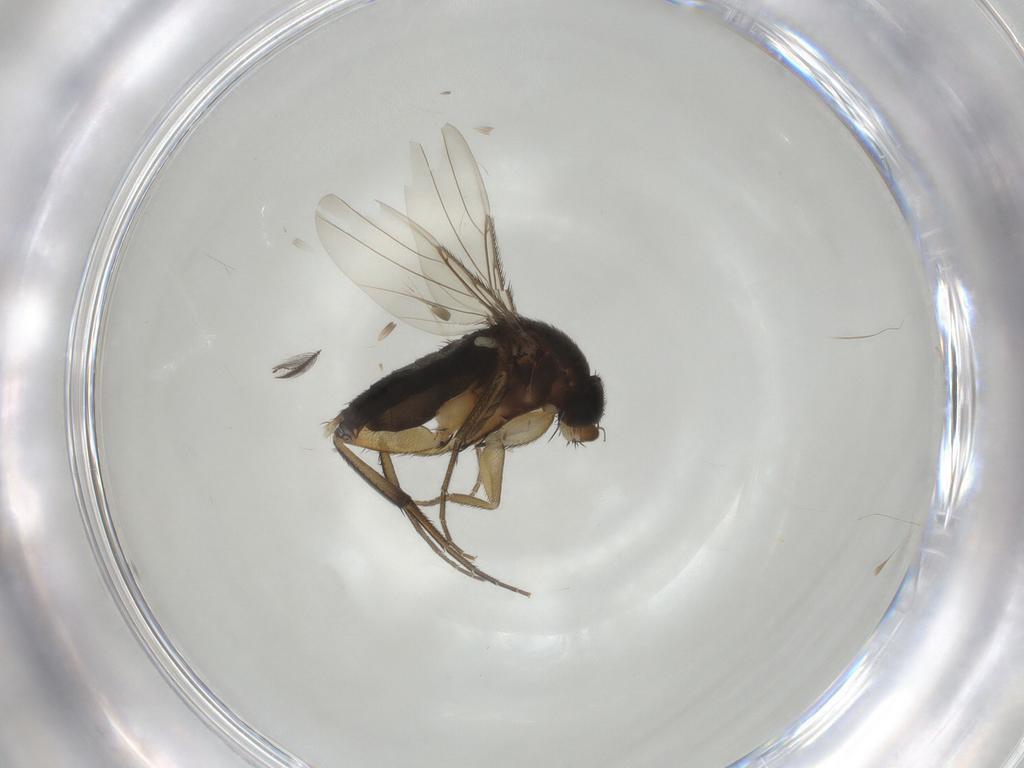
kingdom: Animalia
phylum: Arthropoda
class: Insecta
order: Diptera
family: Phoridae
